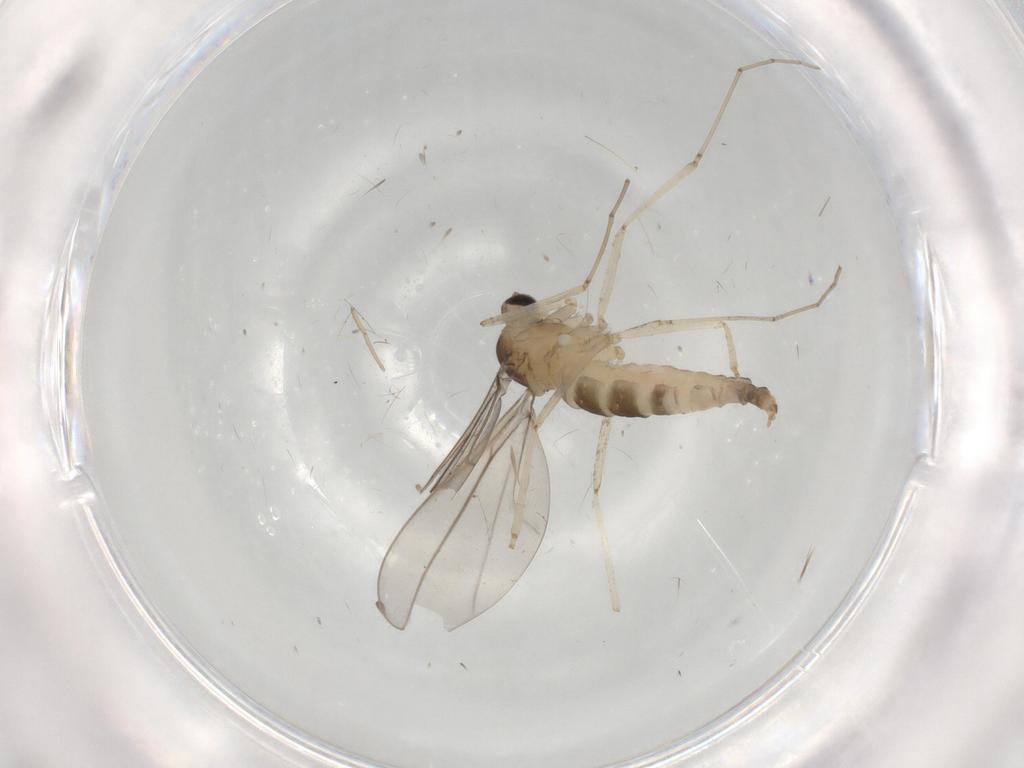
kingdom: Animalia
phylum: Arthropoda
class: Insecta
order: Diptera
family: Cecidomyiidae
